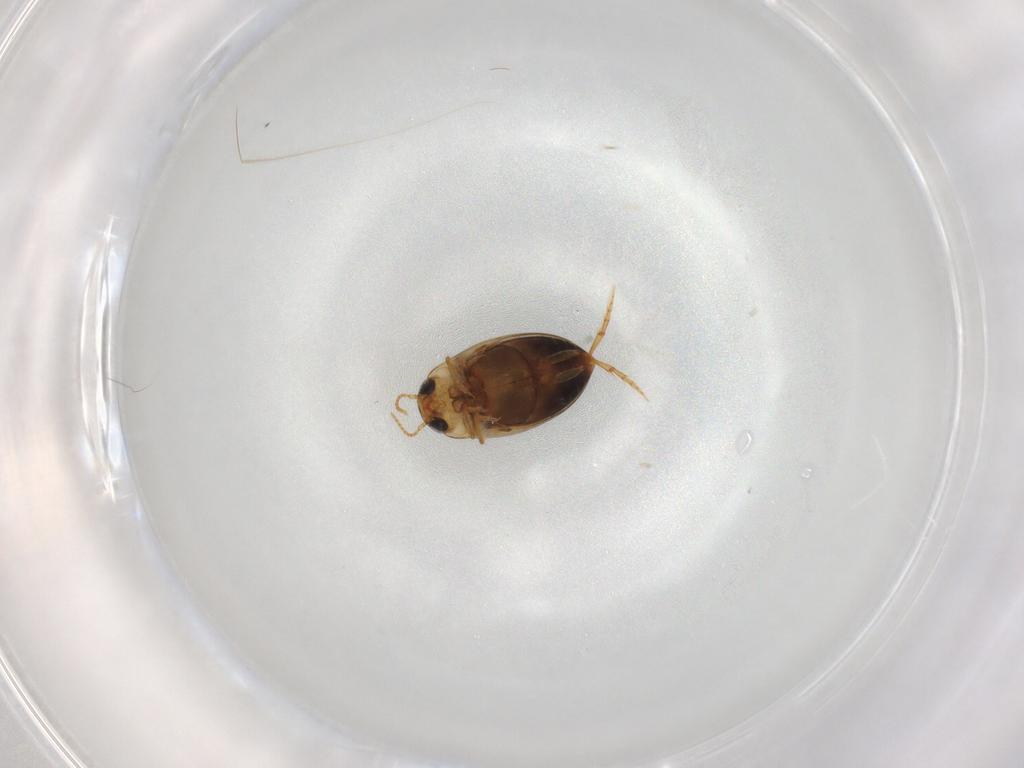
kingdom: Animalia
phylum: Arthropoda
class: Insecta
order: Coleoptera
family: Dytiscidae
